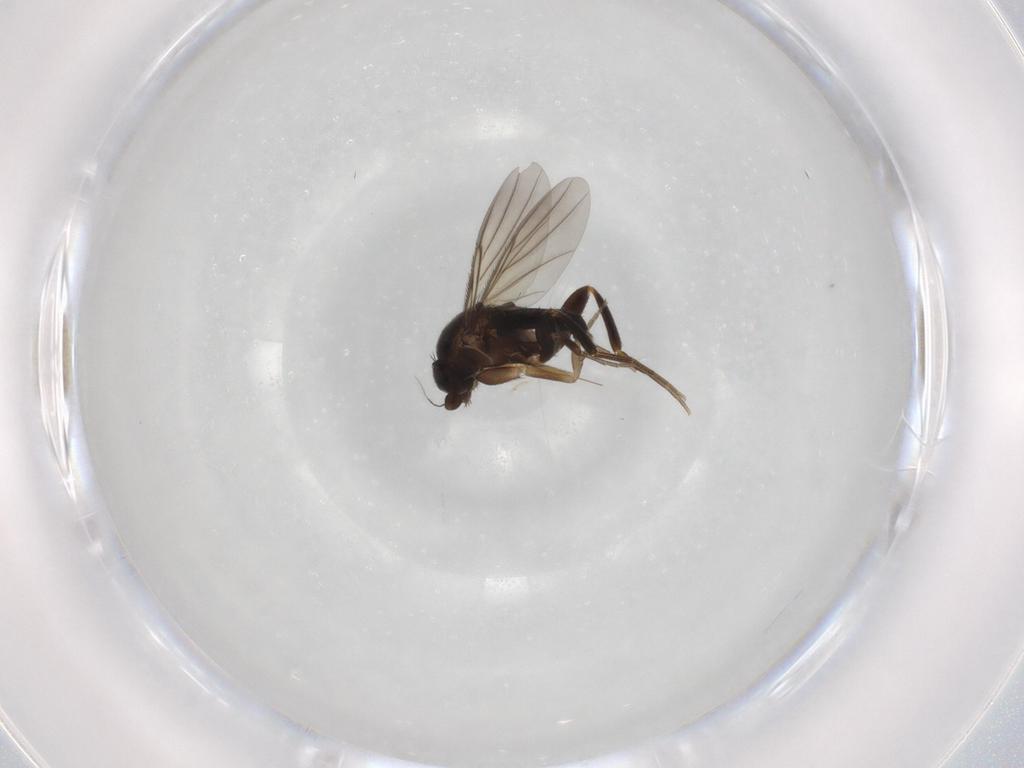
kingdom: Animalia
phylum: Arthropoda
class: Insecta
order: Diptera
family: Phoridae
